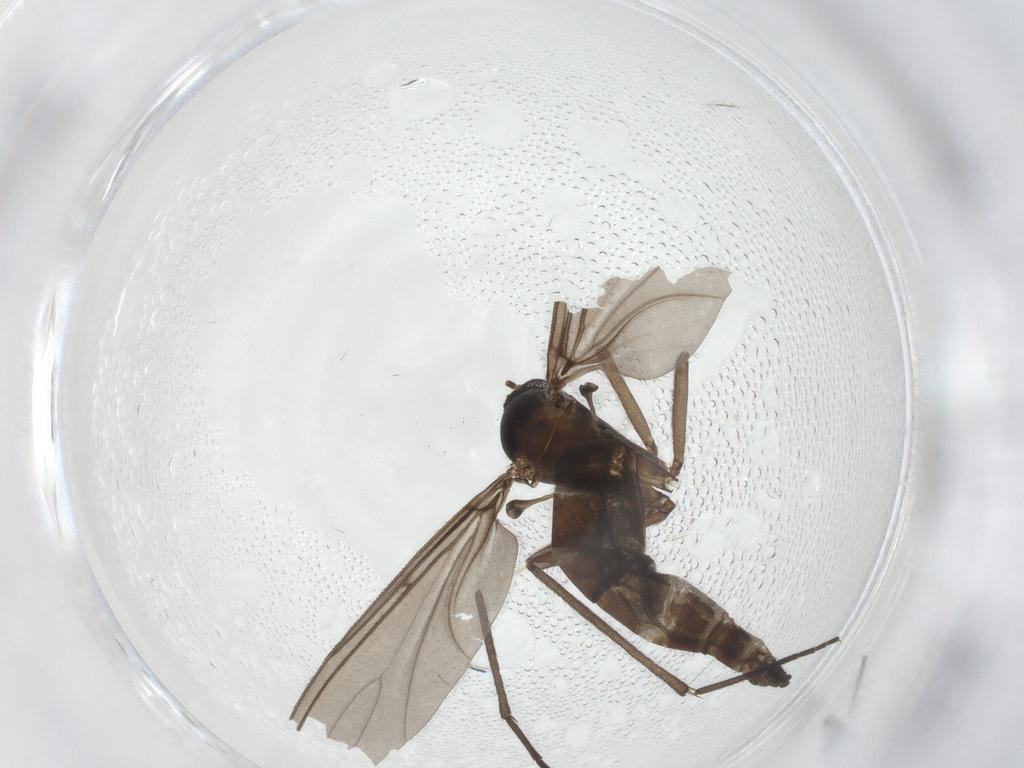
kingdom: Animalia
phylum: Arthropoda
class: Insecta
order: Diptera
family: Sciaridae
